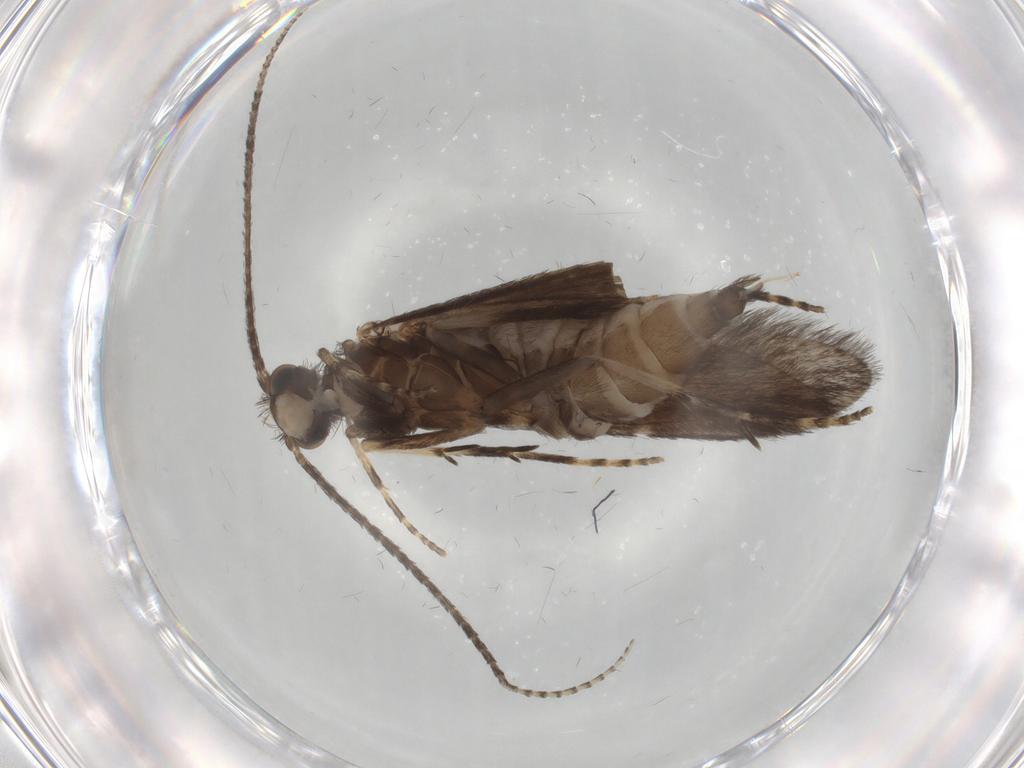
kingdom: Animalia
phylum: Arthropoda
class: Insecta
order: Trichoptera
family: Xiphocentronidae
